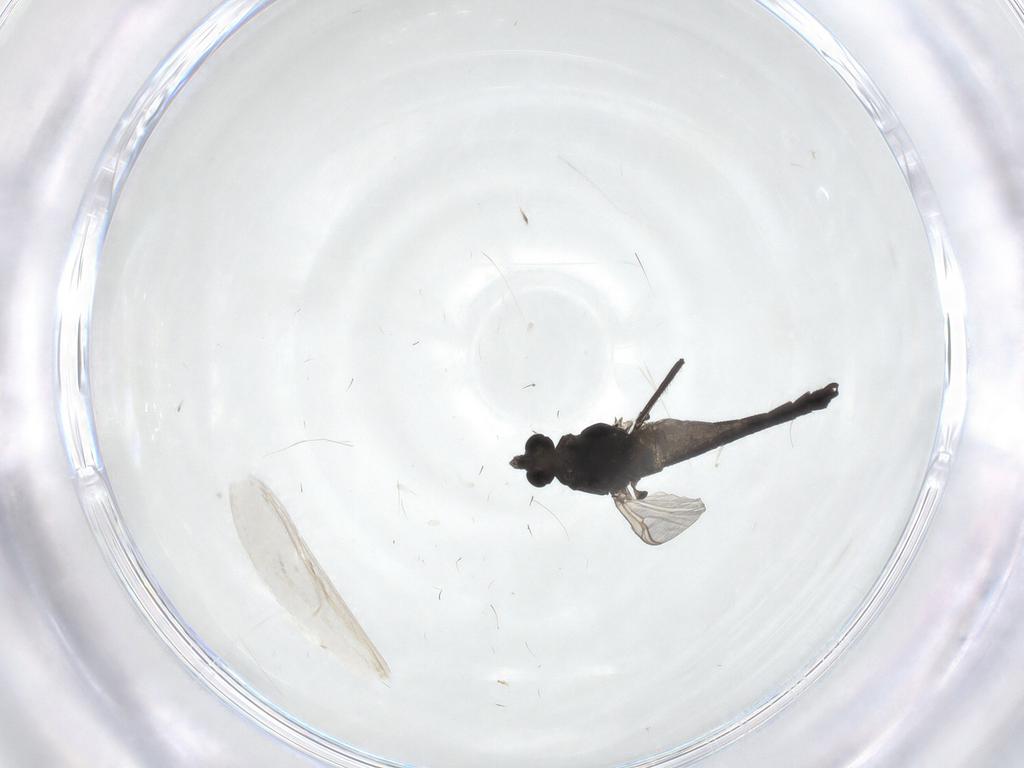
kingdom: Animalia
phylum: Arthropoda
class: Insecta
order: Diptera
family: Chironomidae
